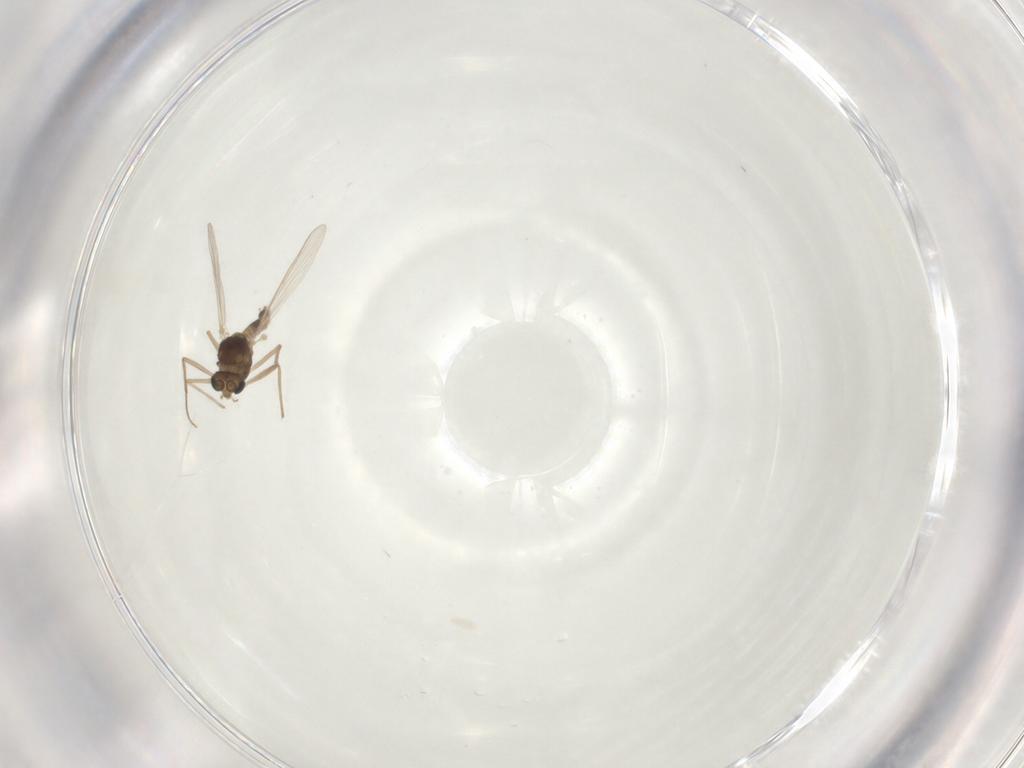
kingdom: Animalia
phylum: Arthropoda
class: Insecta
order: Diptera
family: Chironomidae
